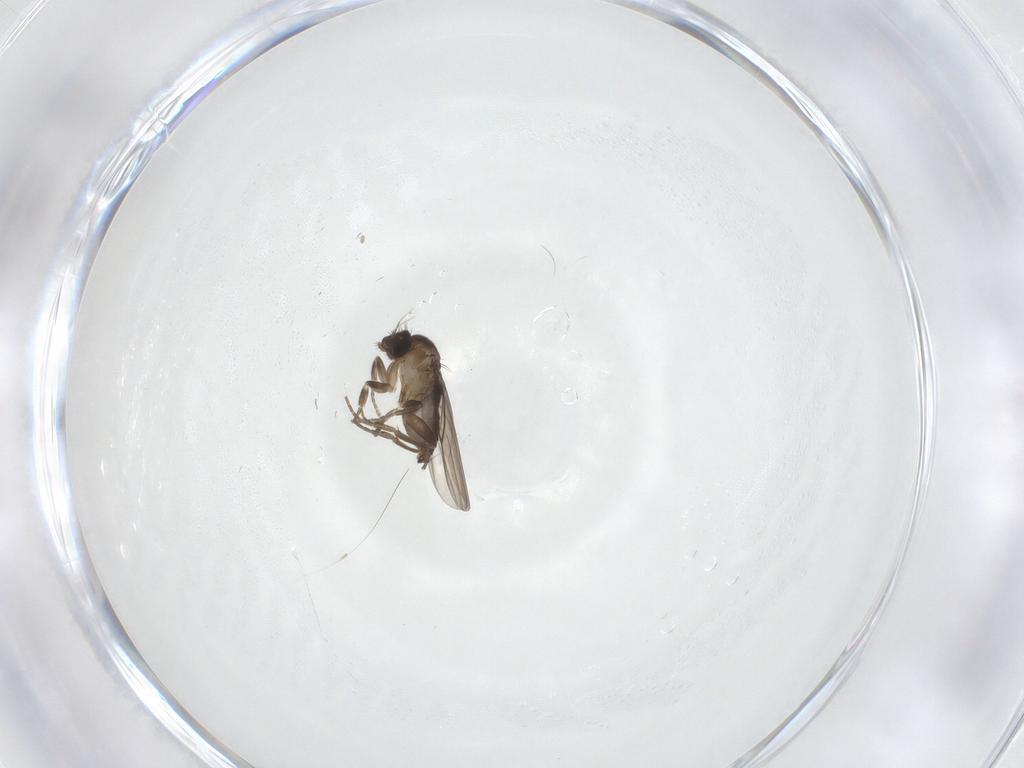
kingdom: Animalia
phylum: Arthropoda
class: Insecta
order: Diptera
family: Phoridae
